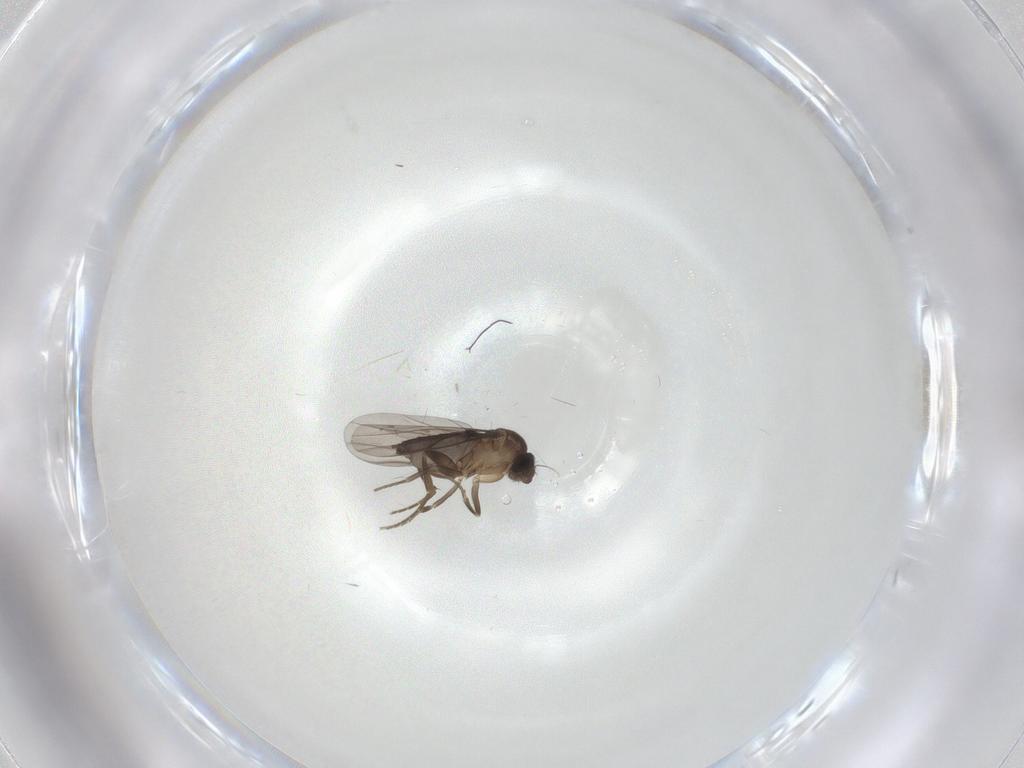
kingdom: Animalia
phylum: Arthropoda
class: Insecta
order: Diptera
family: Phoridae
